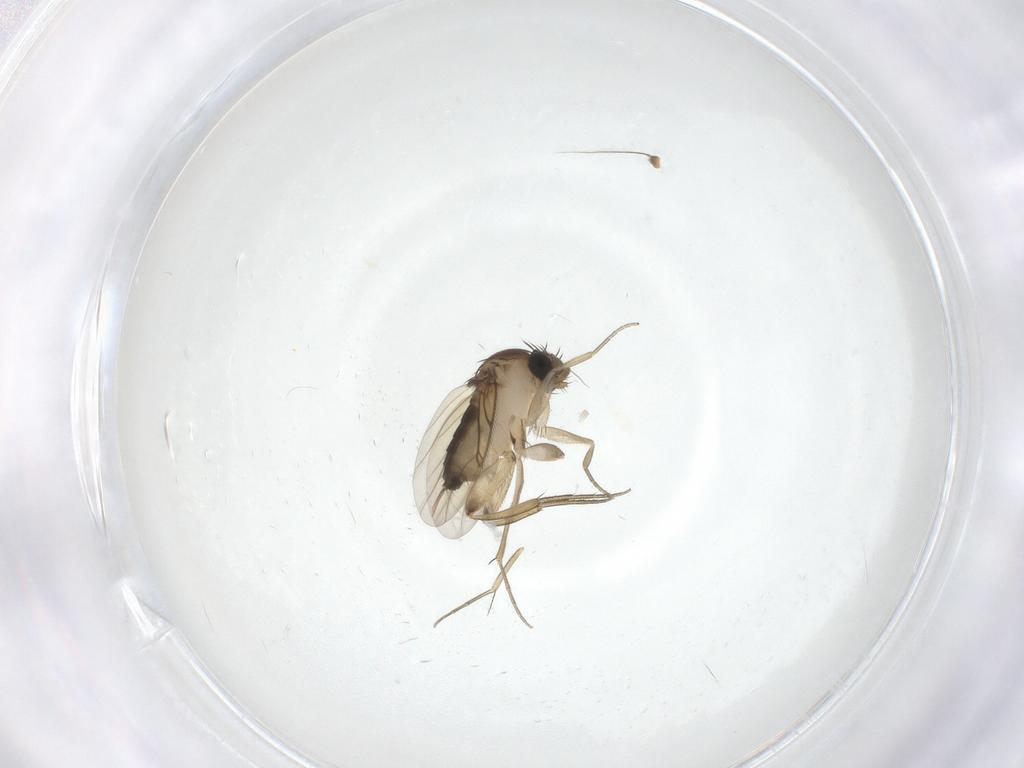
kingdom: Animalia
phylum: Arthropoda
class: Insecta
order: Diptera
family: Phoridae
